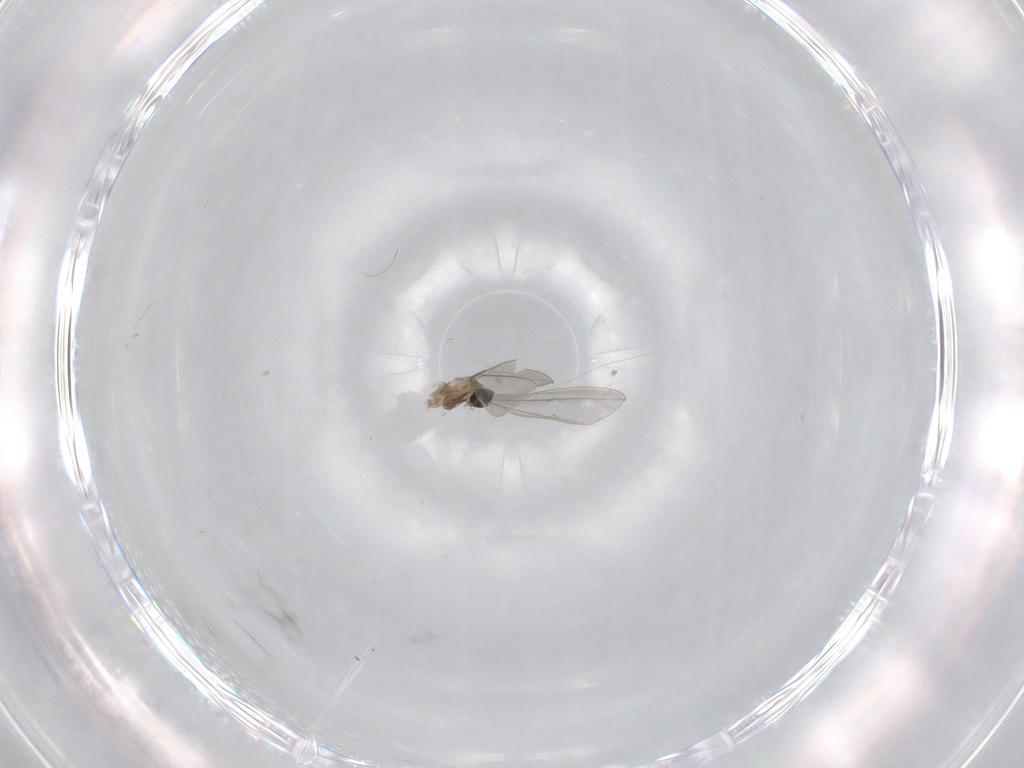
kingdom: Animalia
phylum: Arthropoda
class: Insecta
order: Diptera
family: Cecidomyiidae
